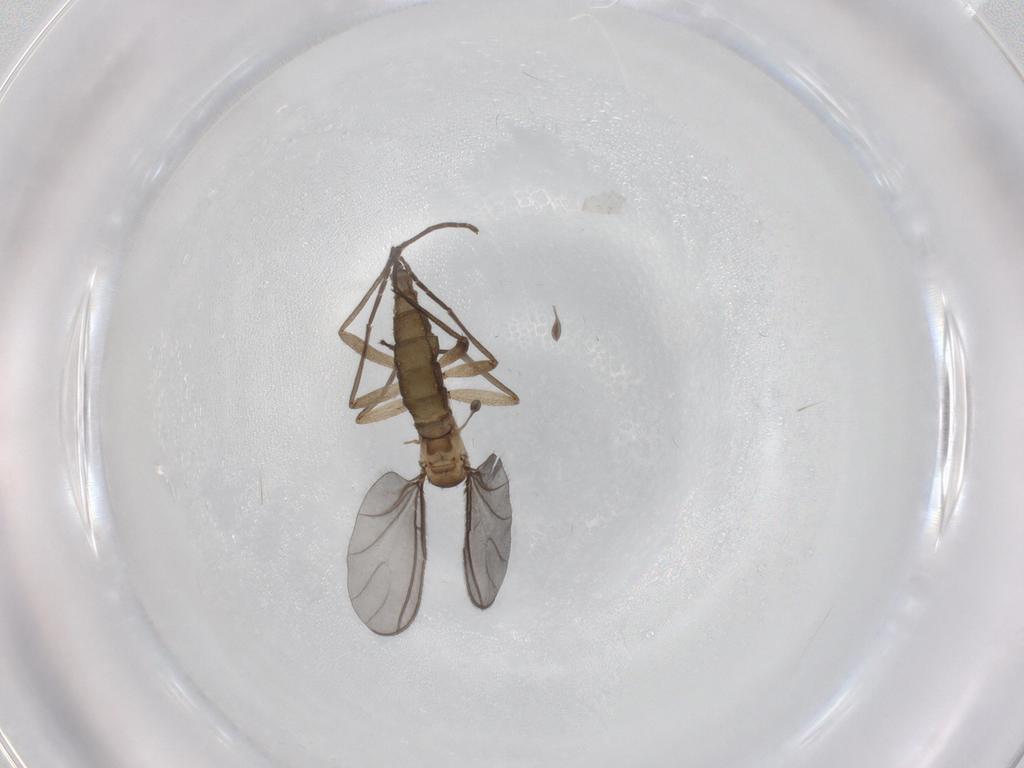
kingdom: Animalia
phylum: Arthropoda
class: Insecta
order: Diptera
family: Sciaridae
